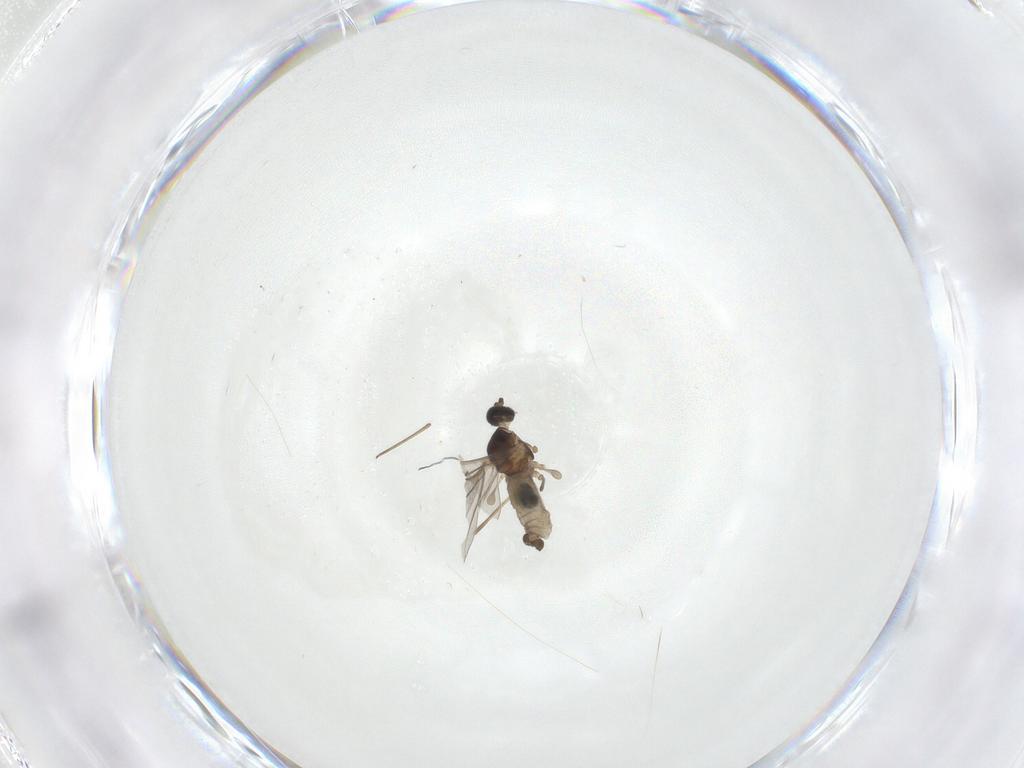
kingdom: Animalia
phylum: Arthropoda
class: Insecta
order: Diptera
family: Cecidomyiidae
